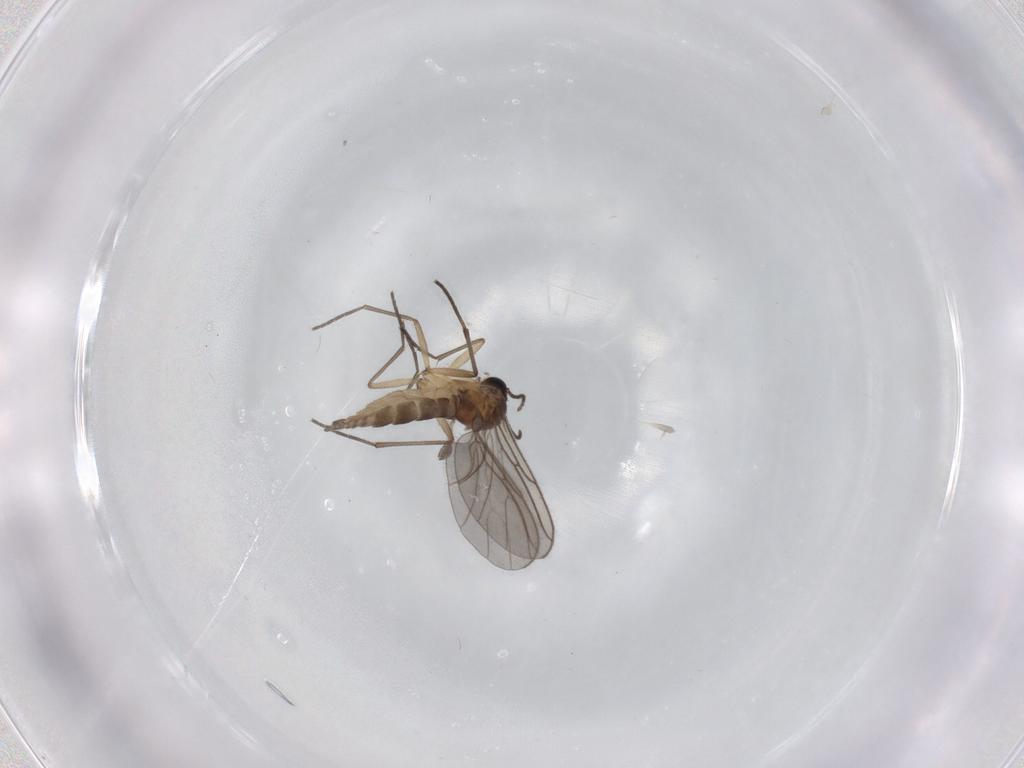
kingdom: Animalia
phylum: Arthropoda
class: Insecta
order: Diptera
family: Sciaridae
